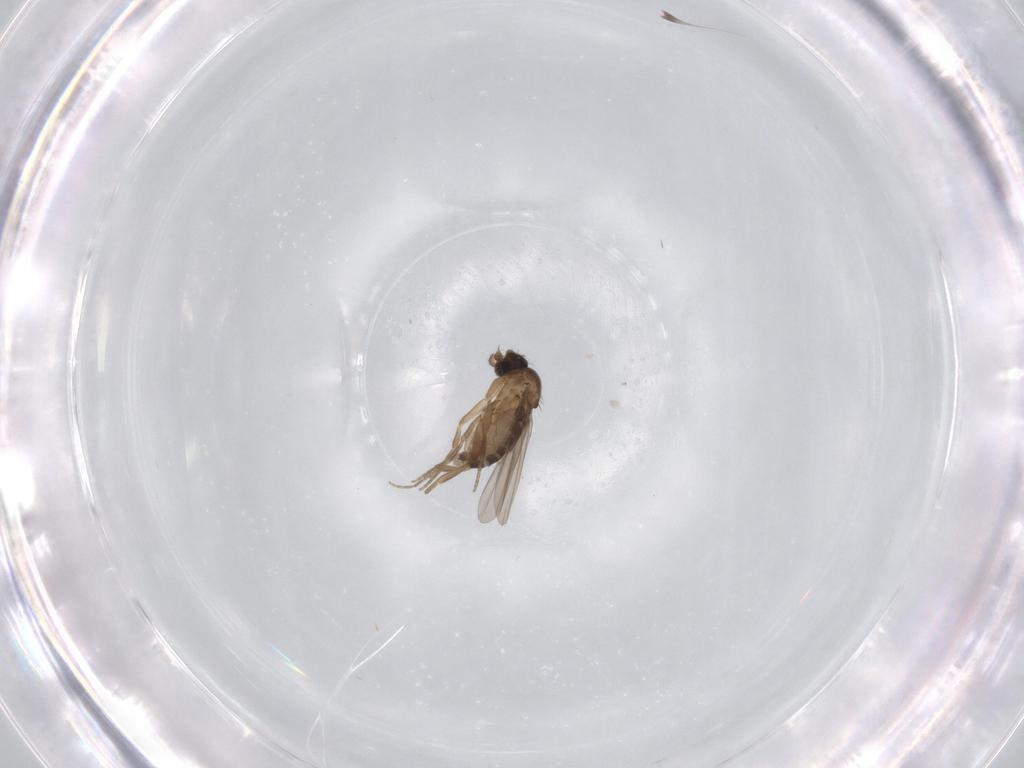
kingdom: Animalia
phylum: Arthropoda
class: Insecta
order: Diptera
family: Phoridae
